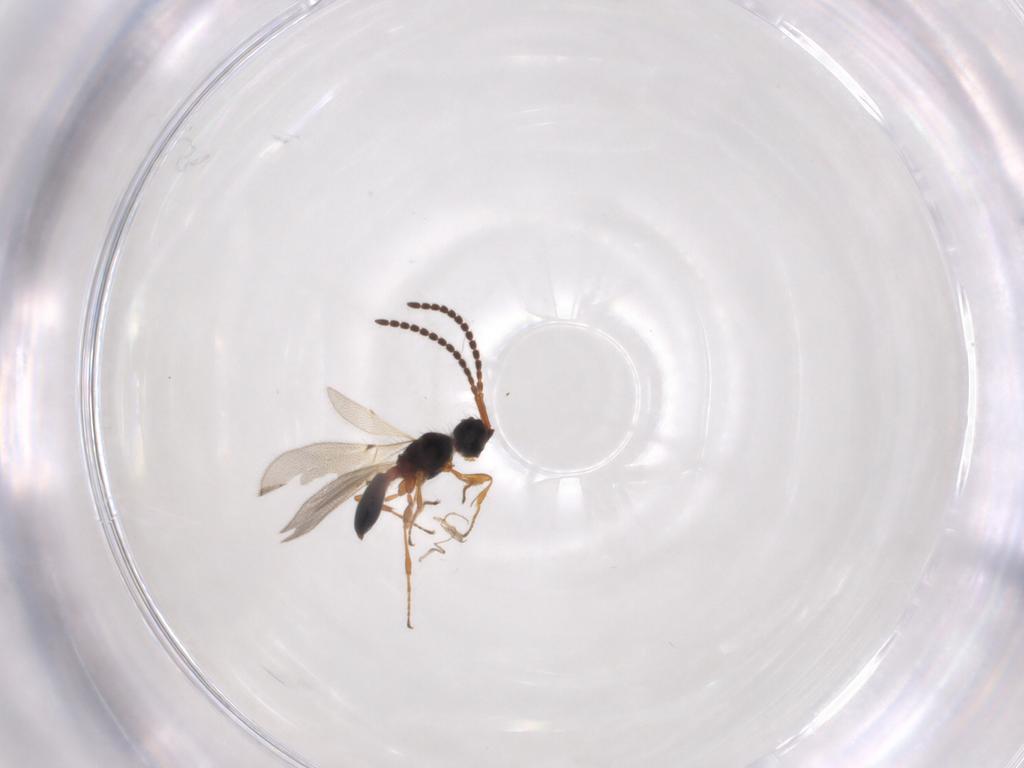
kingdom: Animalia
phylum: Arthropoda
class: Insecta
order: Hymenoptera
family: Diapriidae
